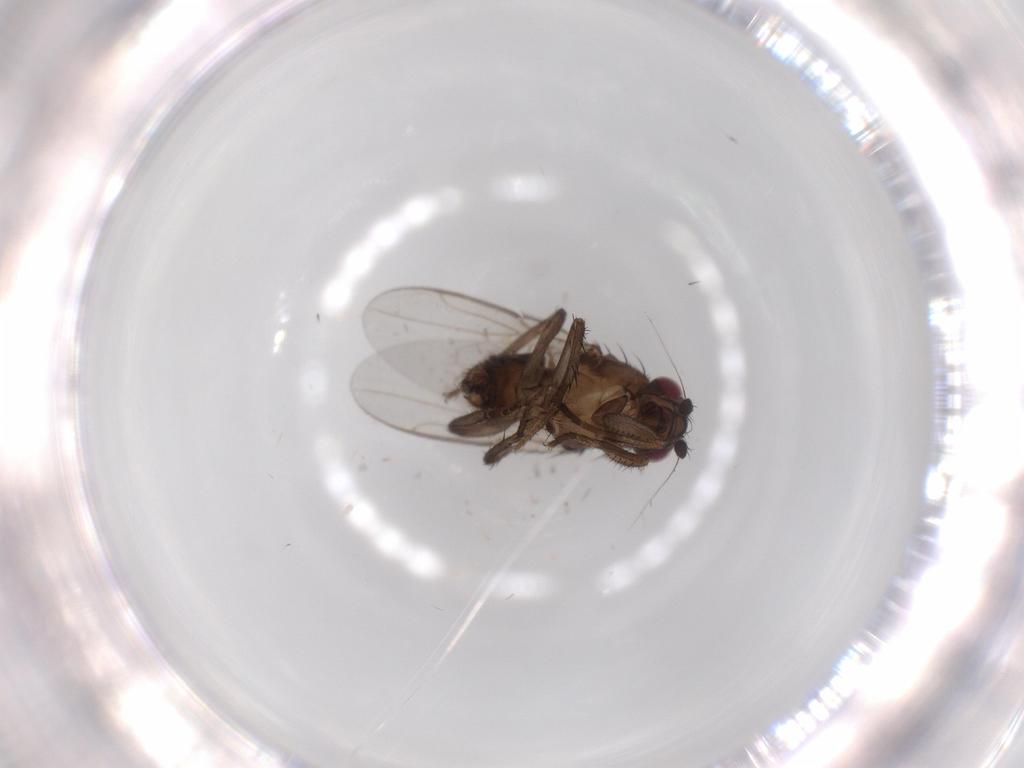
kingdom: Animalia
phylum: Arthropoda
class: Insecta
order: Diptera
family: Sphaeroceridae
